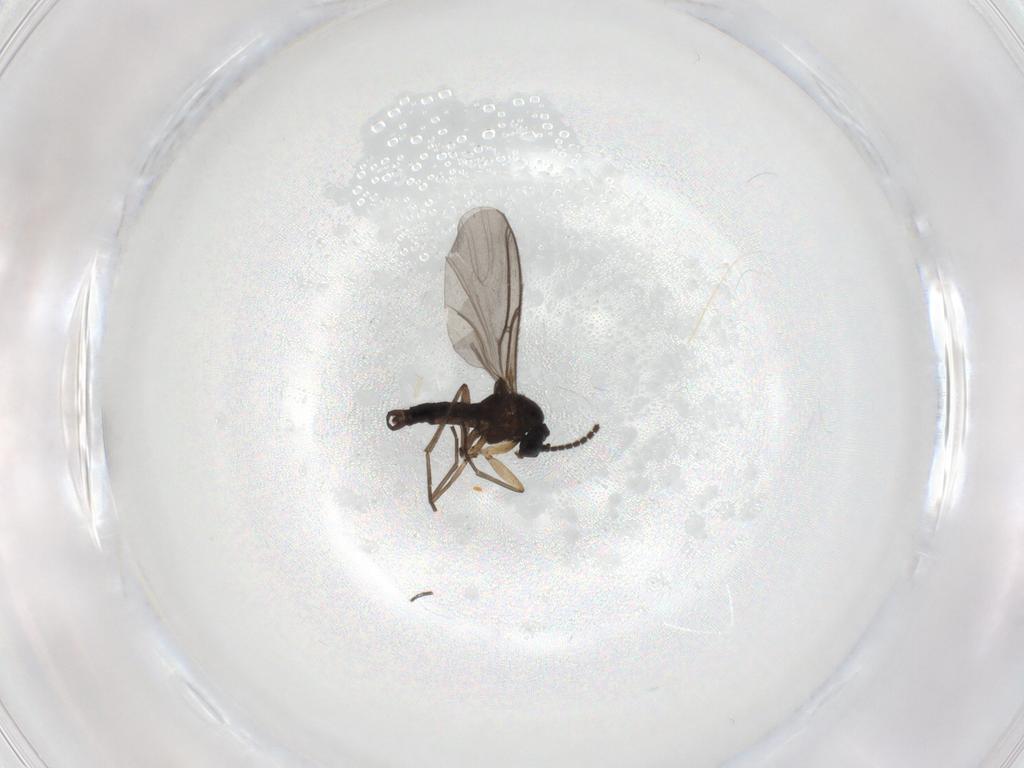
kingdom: Animalia
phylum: Arthropoda
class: Insecta
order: Diptera
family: Sciaridae
